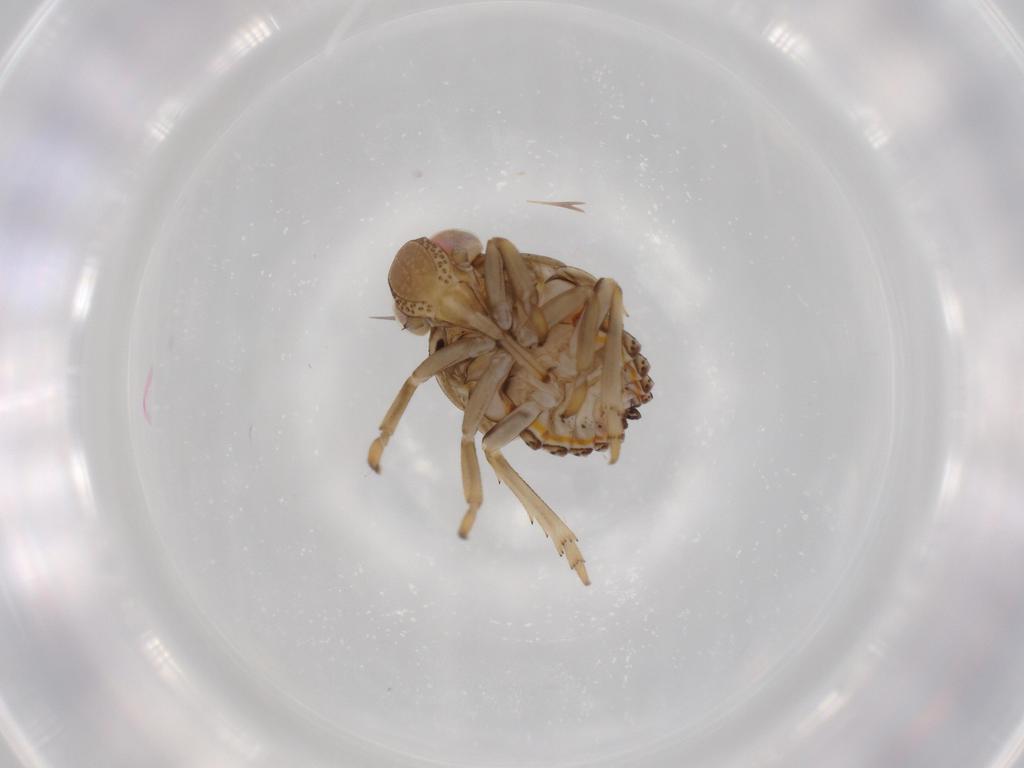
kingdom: Animalia
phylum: Arthropoda
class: Insecta
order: Hemiptera
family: Issidae
